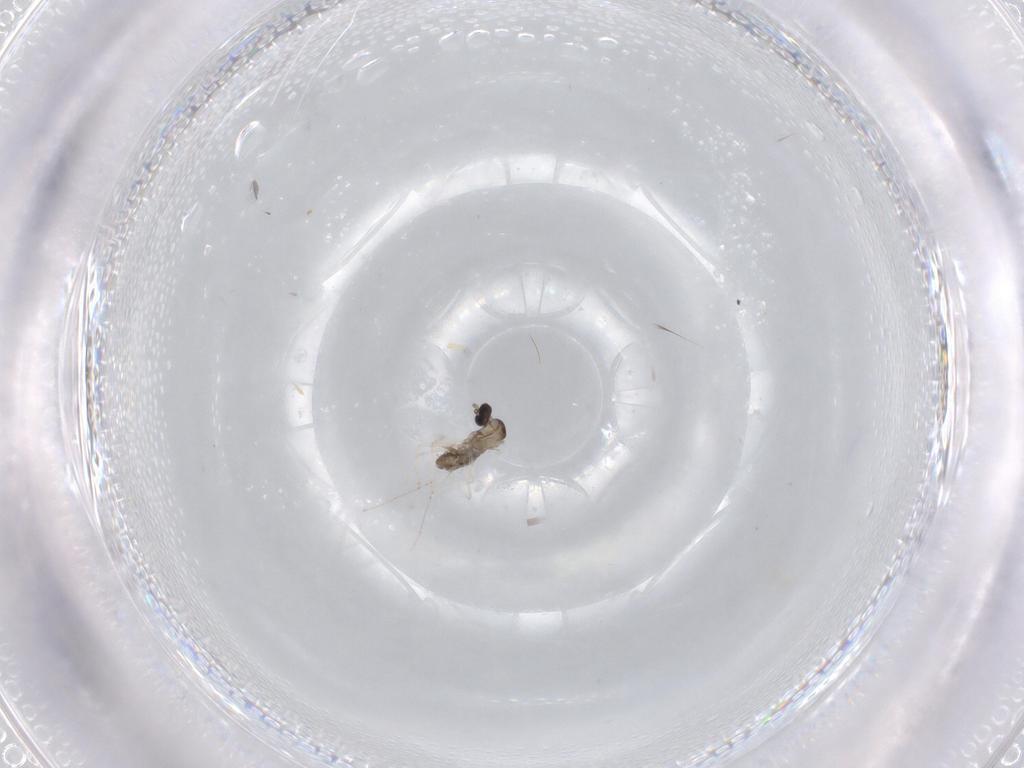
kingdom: Animalia
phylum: Arthropoda
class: Insecta
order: Diptera
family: Cecidomyiidae
